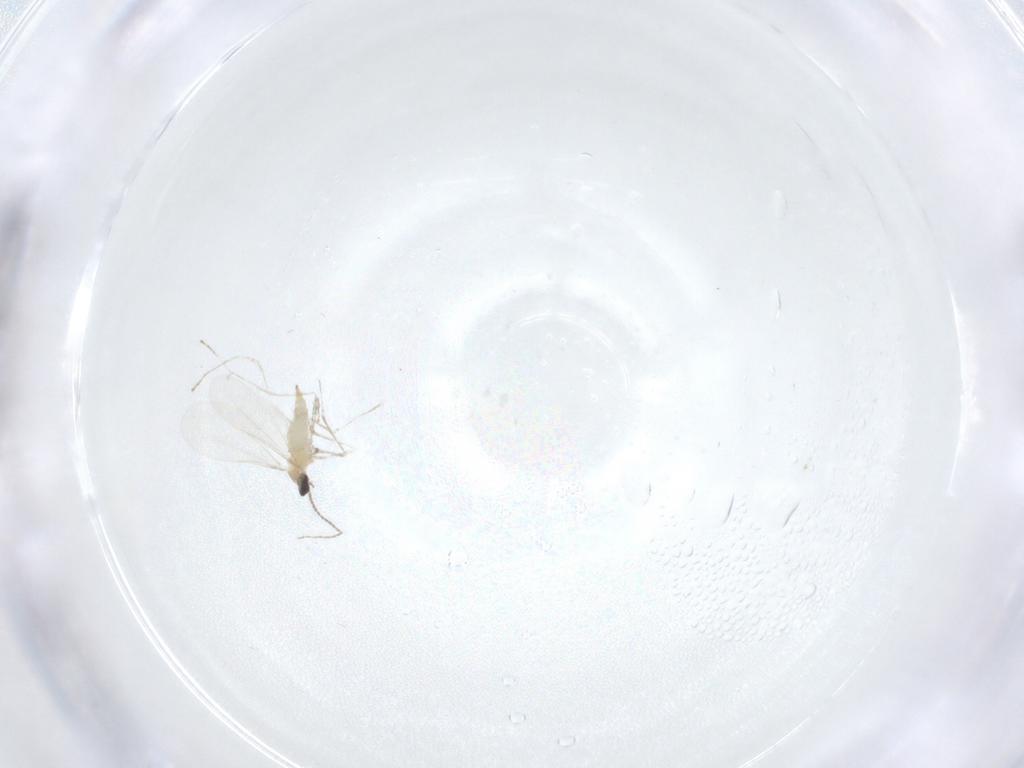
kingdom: Animalia
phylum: Arthropoda
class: Insecta
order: Diptera
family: Cecidomyiidae
